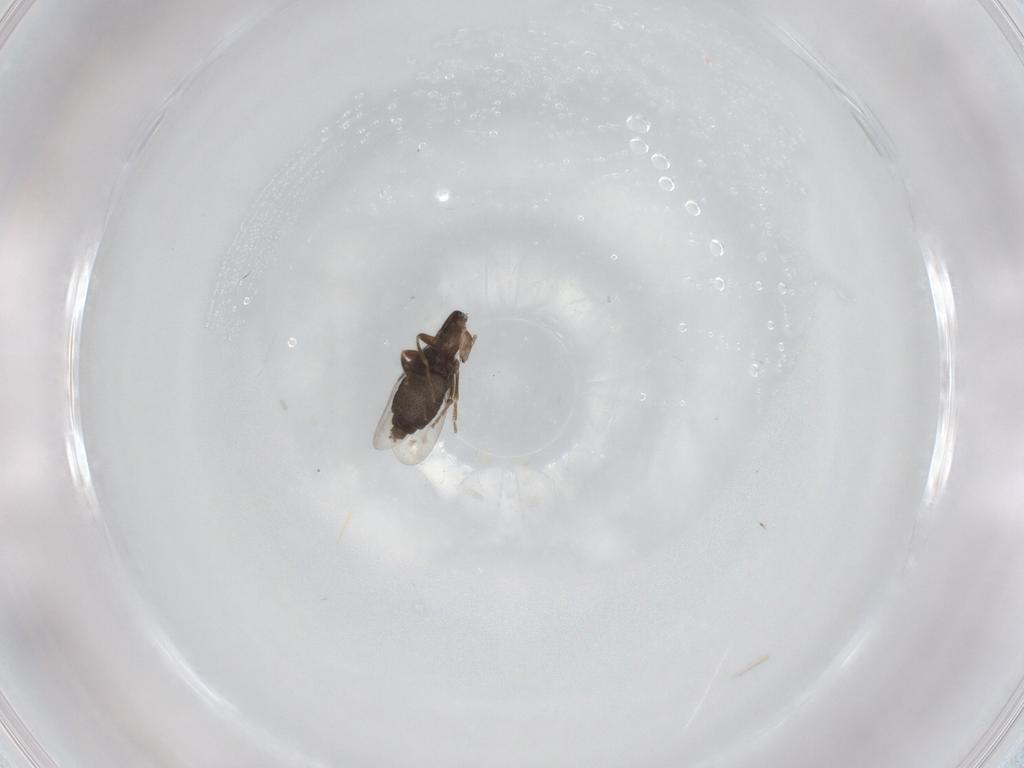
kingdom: Animalia
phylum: Arthropoda
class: Insecta
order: Diptera
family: Phoridae
